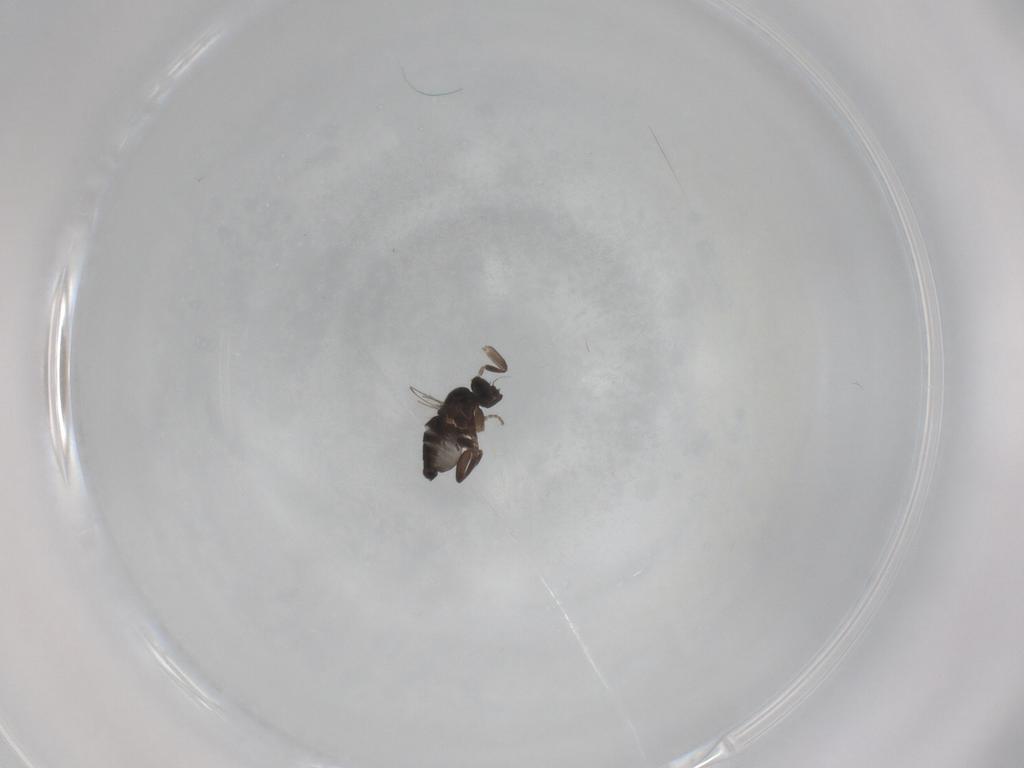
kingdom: Animalia
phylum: Arthropoda
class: Insecta
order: Diptera
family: Phoridae
